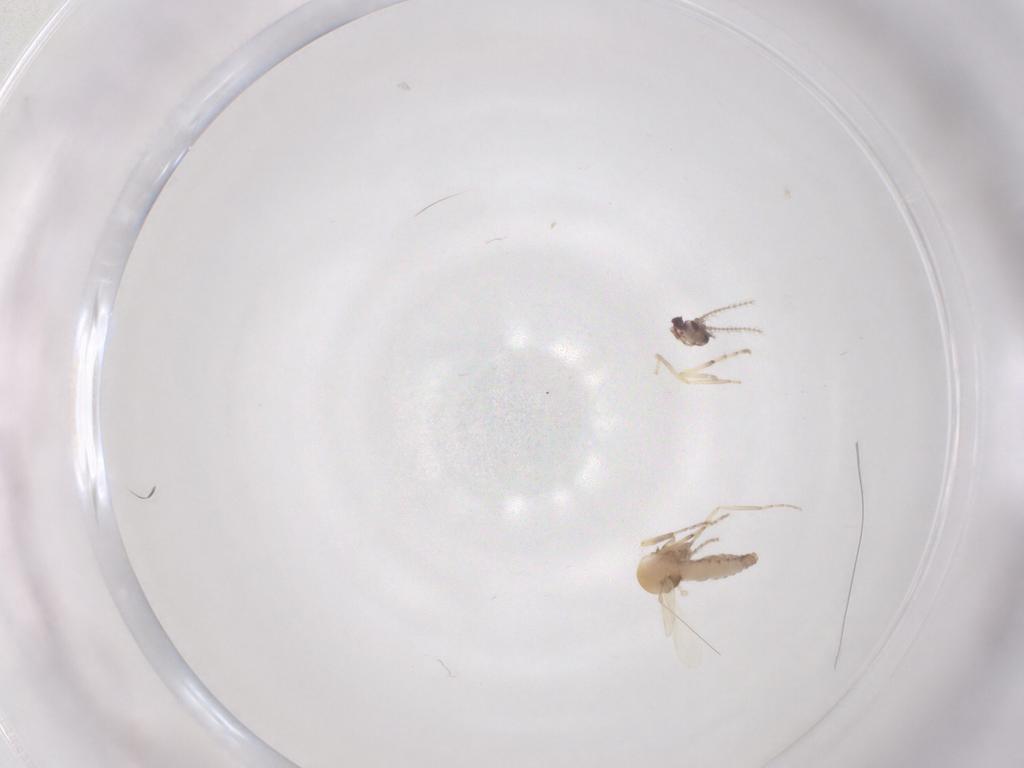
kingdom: Animalia
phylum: Arthropoda
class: Insecta
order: Diptera
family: Ceratopogonidae
